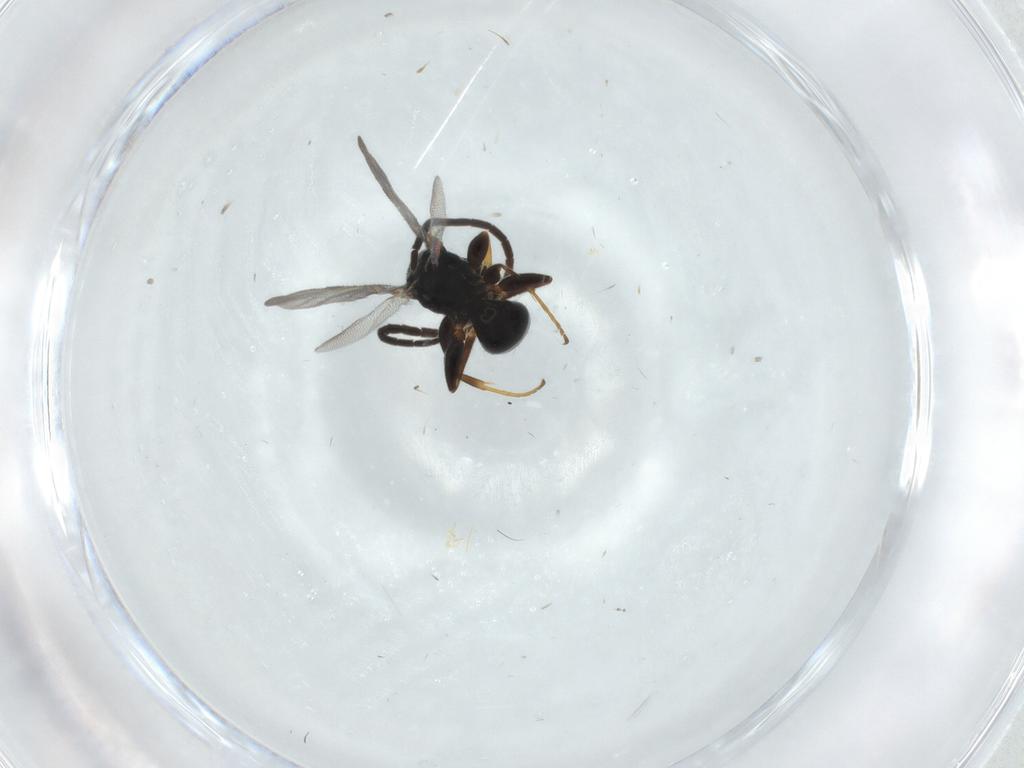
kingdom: Animalia
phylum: Arthropoda
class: Insecta
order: Hymenoptera
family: Bethylidae
